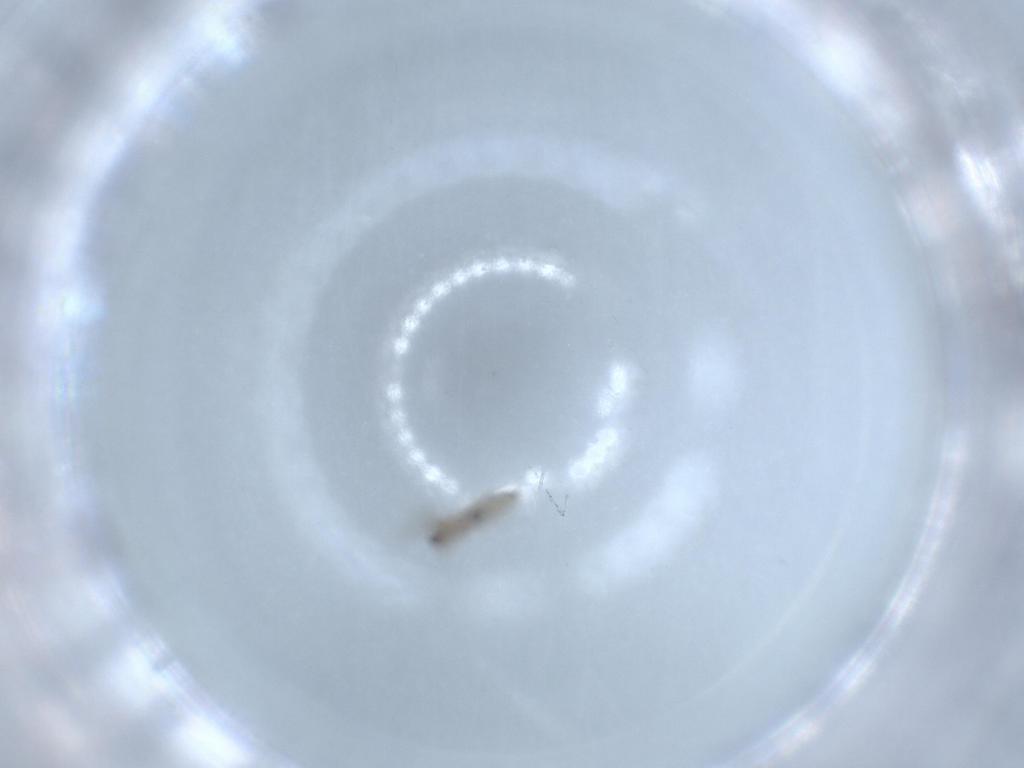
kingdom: Animalia
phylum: Arthropoda
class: Insecta
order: Diptera
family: Cecidomyiidae
